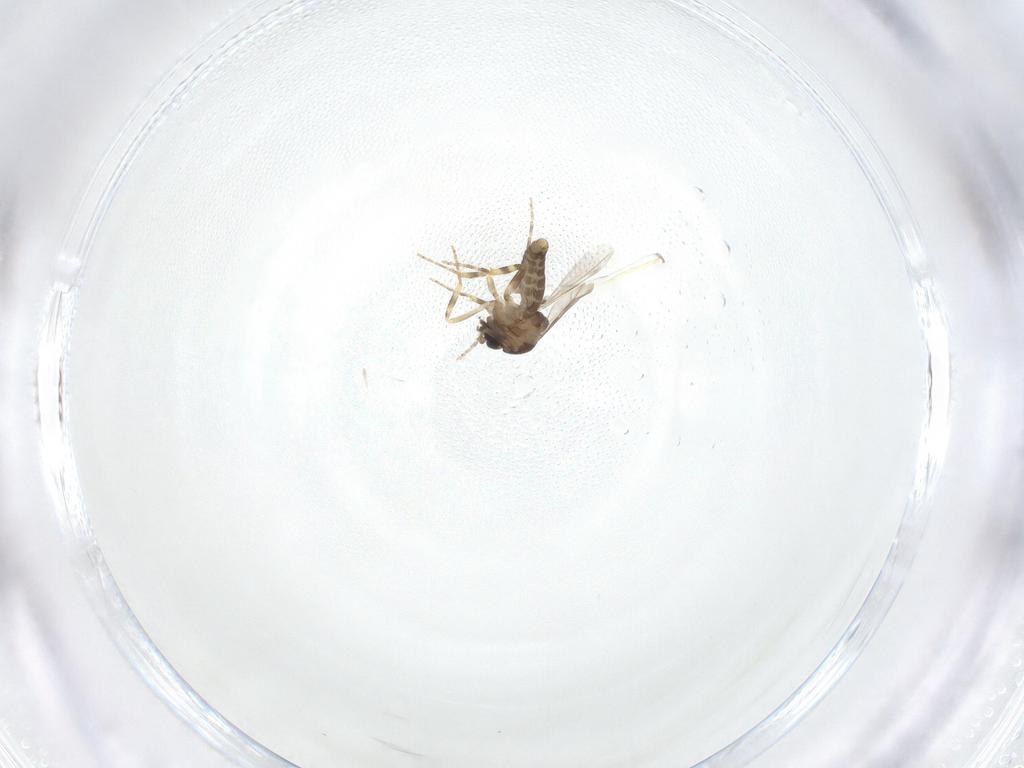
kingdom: Animalia
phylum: Arthropoda
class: Insecta
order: Diptera
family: Ceratopogonidae
